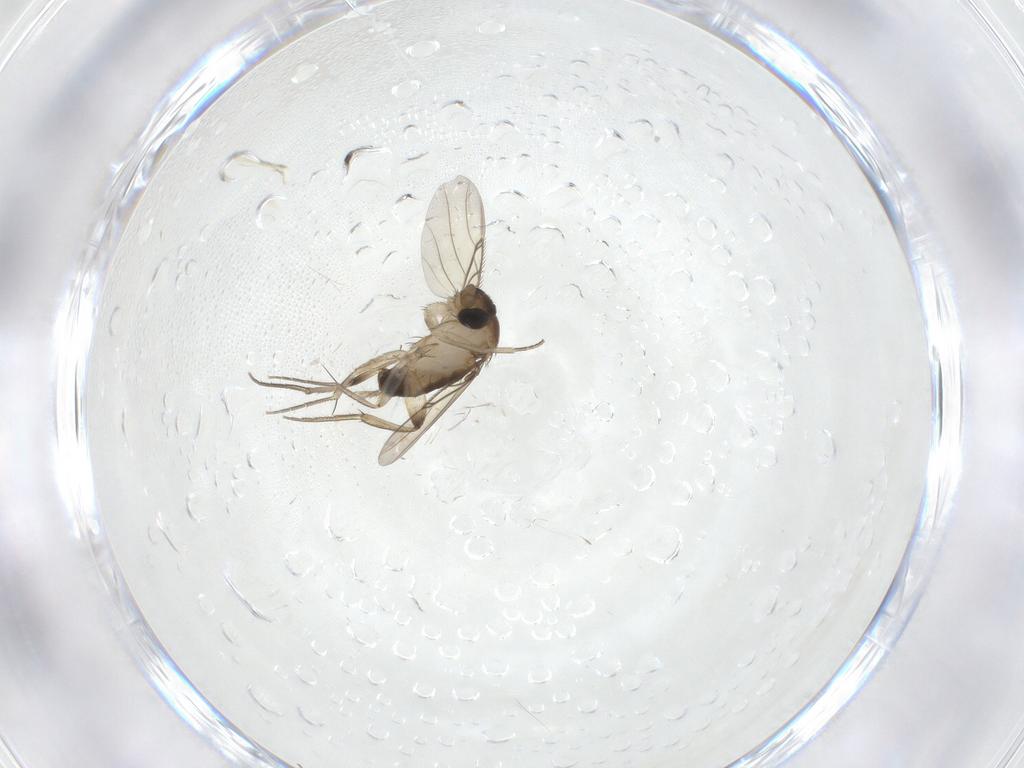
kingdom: Animalia
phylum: Arthropoda
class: Insecta
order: Diptera
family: Phoridae
